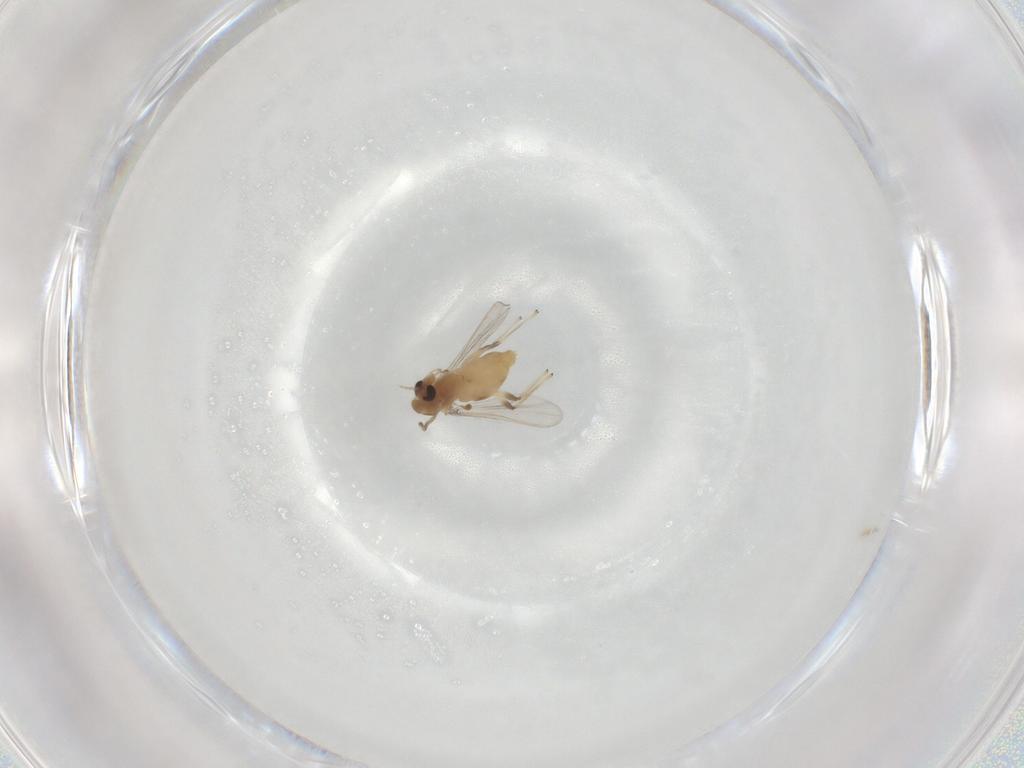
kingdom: Animalia
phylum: Arthropoda
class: Insecta
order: Diptera
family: Chironomidae
